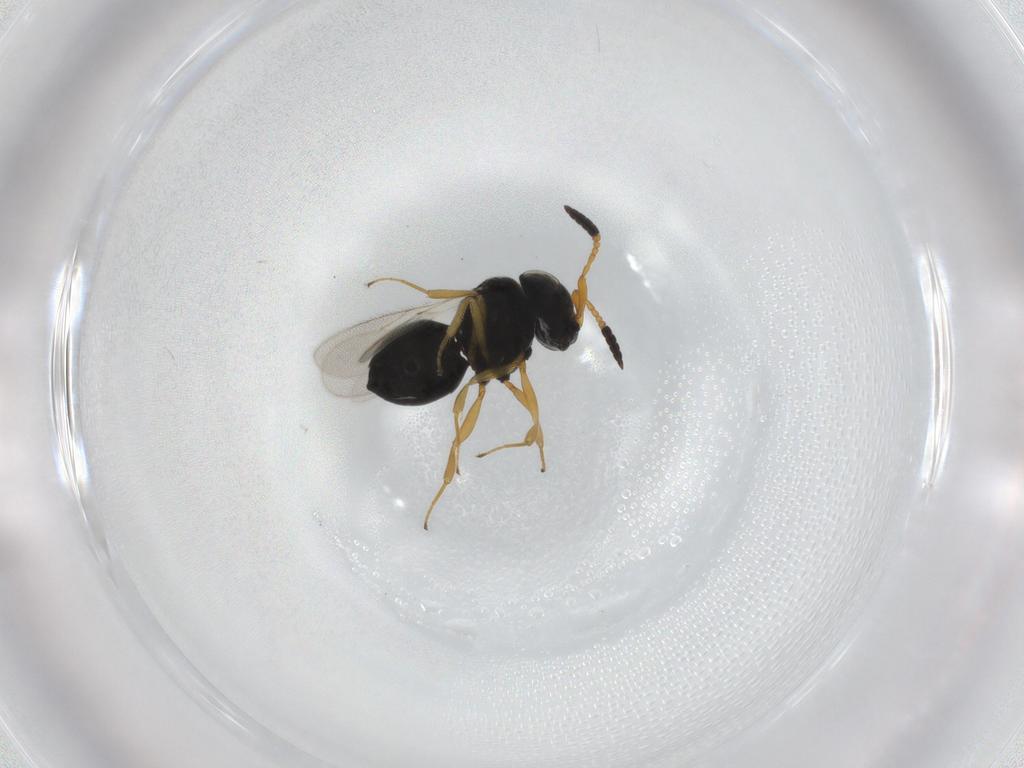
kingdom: Animalia
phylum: Arthropoda
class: Insecta
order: Hymenoptera
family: Scelionidae
